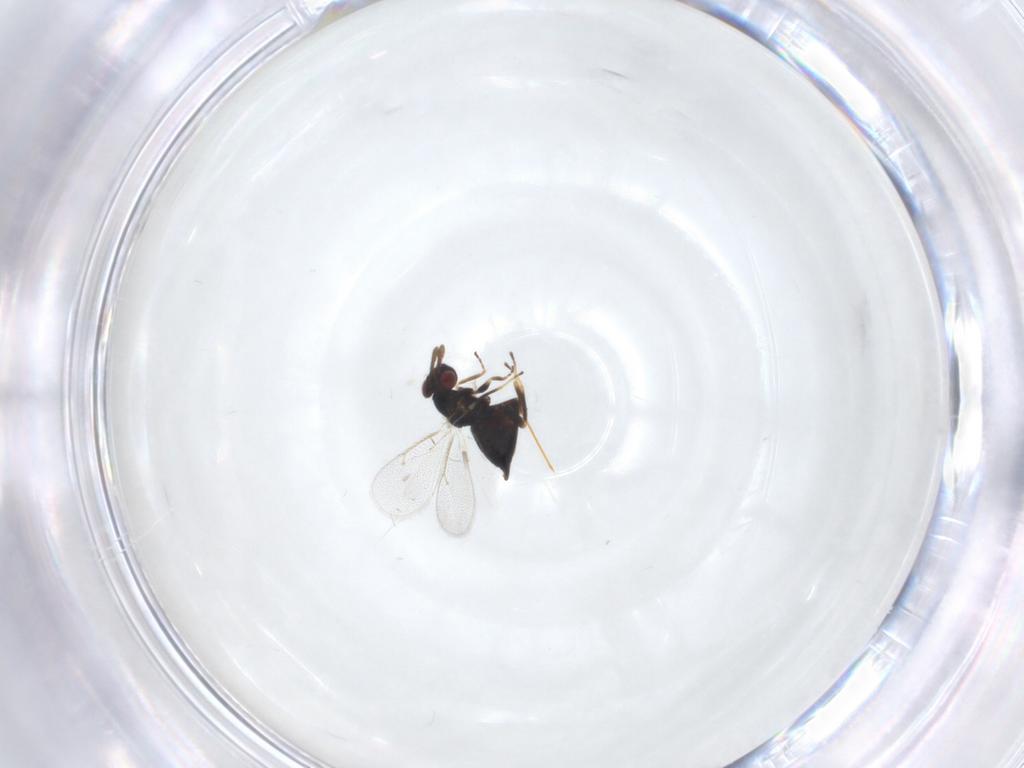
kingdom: Animalia
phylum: Arthropoda
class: Insecta
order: Hymenoptera
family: Eulophidae
